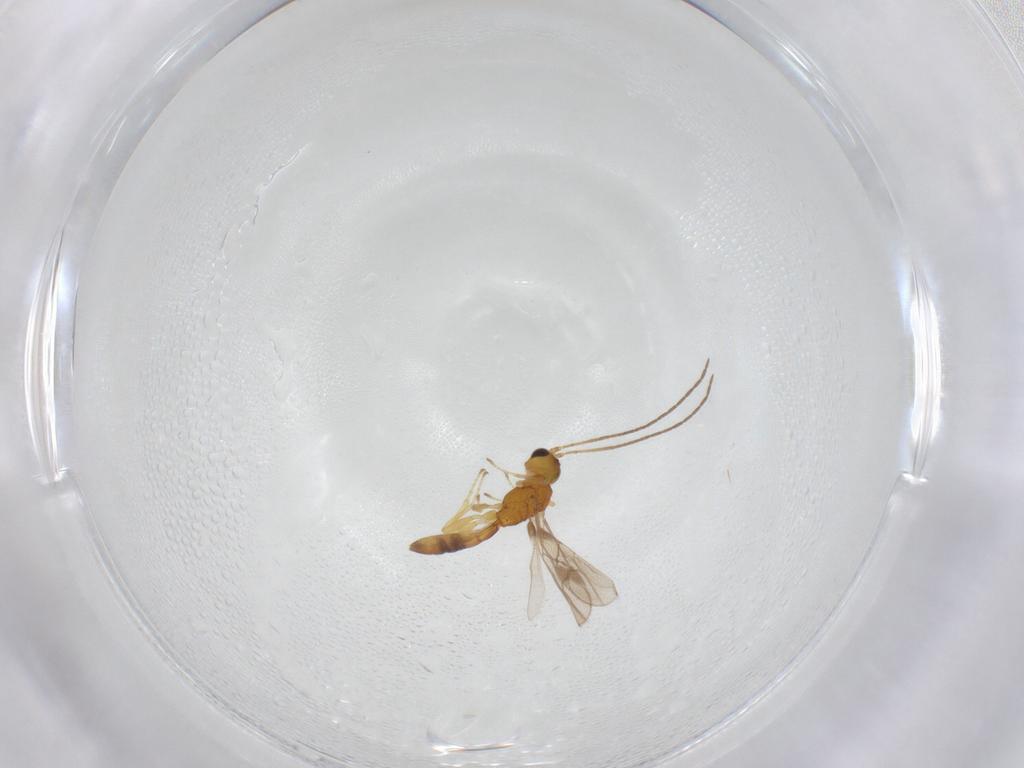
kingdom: Animalia
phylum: Arthropoda
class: Insecta
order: Hymenoptera
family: Braconidae
